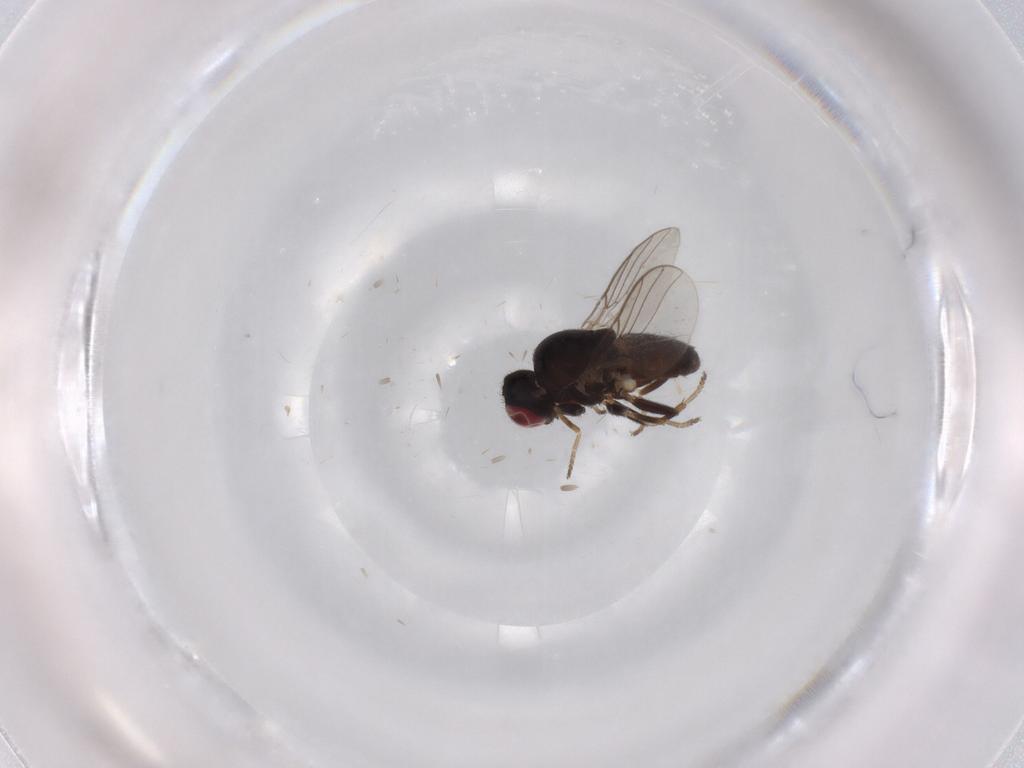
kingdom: Animalia
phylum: Arthropoda
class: Insecta
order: Diptera
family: Chloropidae
